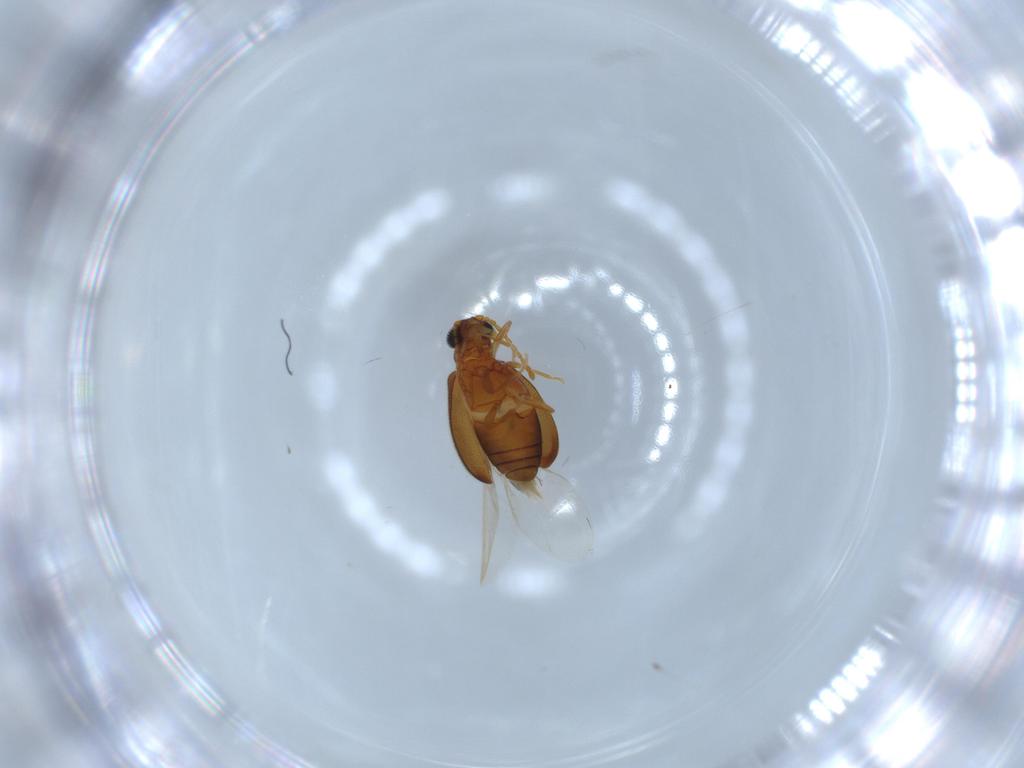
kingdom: Animalia
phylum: Arthropoda
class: Insecta
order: Coleoptera
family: Aderidae
